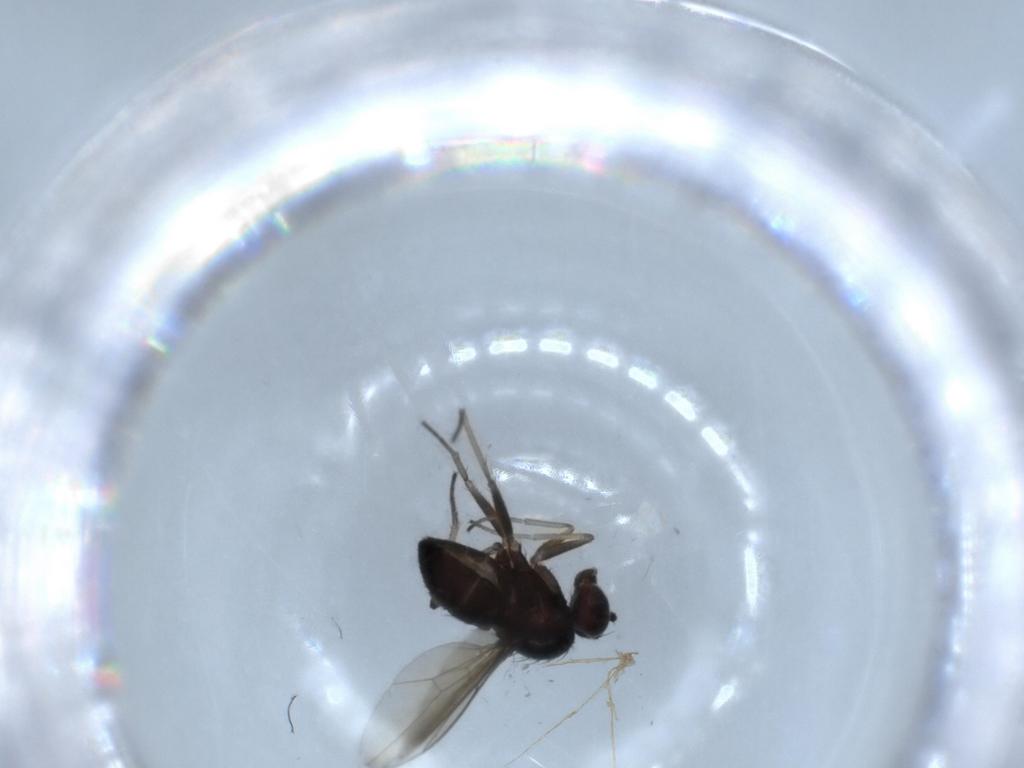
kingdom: Animalia
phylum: Arthropoda
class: Insecta
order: Diptera
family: Dolichopodidae
